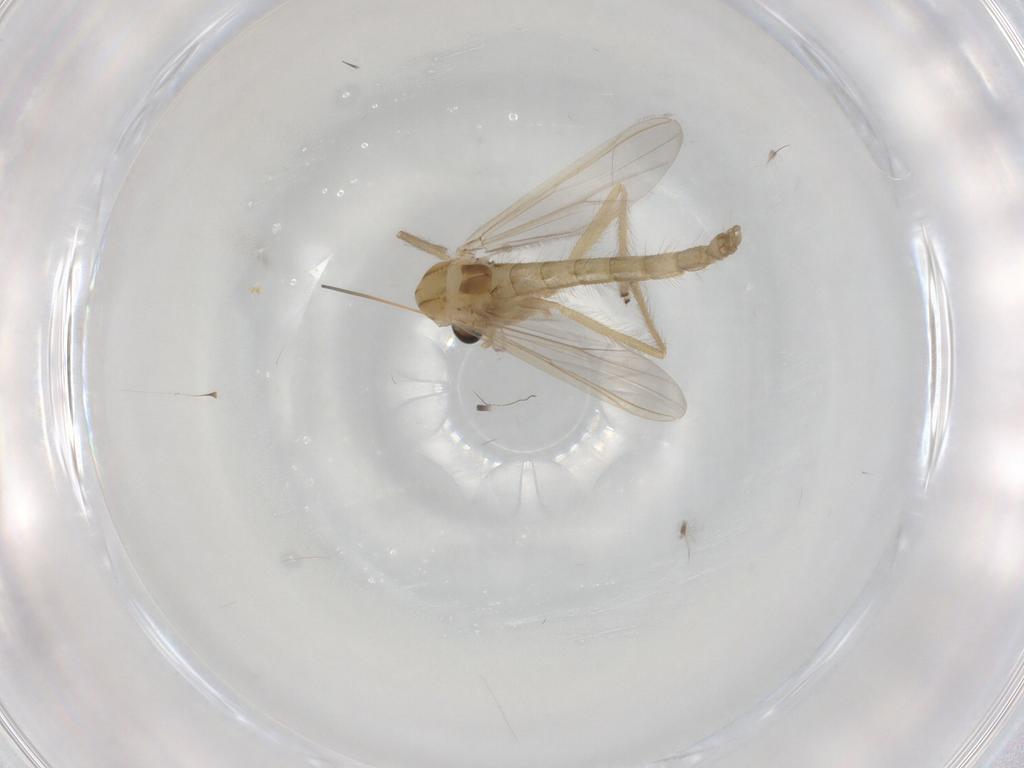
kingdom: Animalia
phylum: Arthropoda
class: Insecta
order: Diptera
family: Chironomidae
